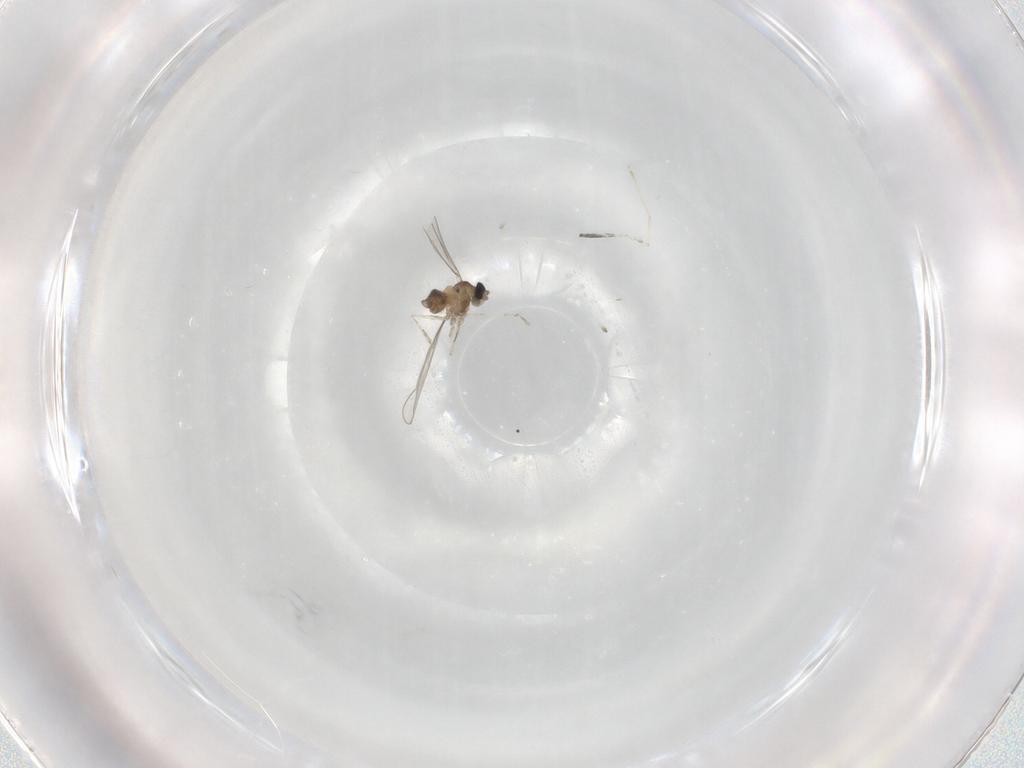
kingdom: Animalia
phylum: Arthropoda
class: Insecta
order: Diptera
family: Cecidomyiidae
